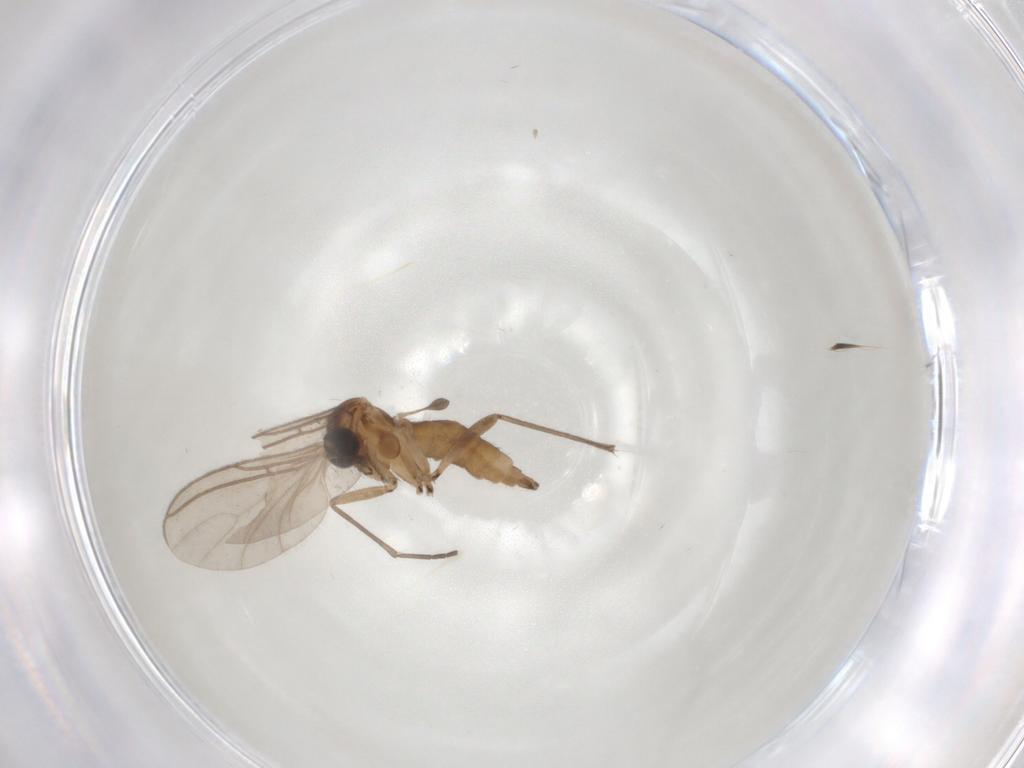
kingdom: Animalia
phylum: Arthropoda
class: Insecta
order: Diptera
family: Sciaridae
